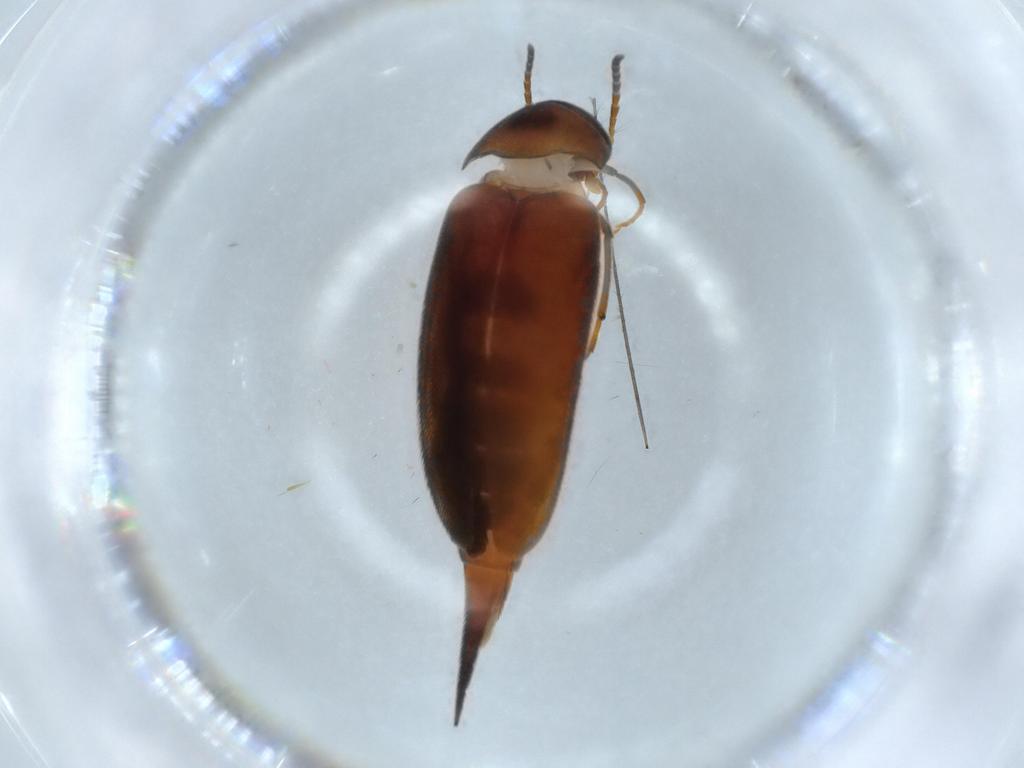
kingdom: Animalia
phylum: Arthropoda
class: Insecta
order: Coleoptera
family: Mordellidae
